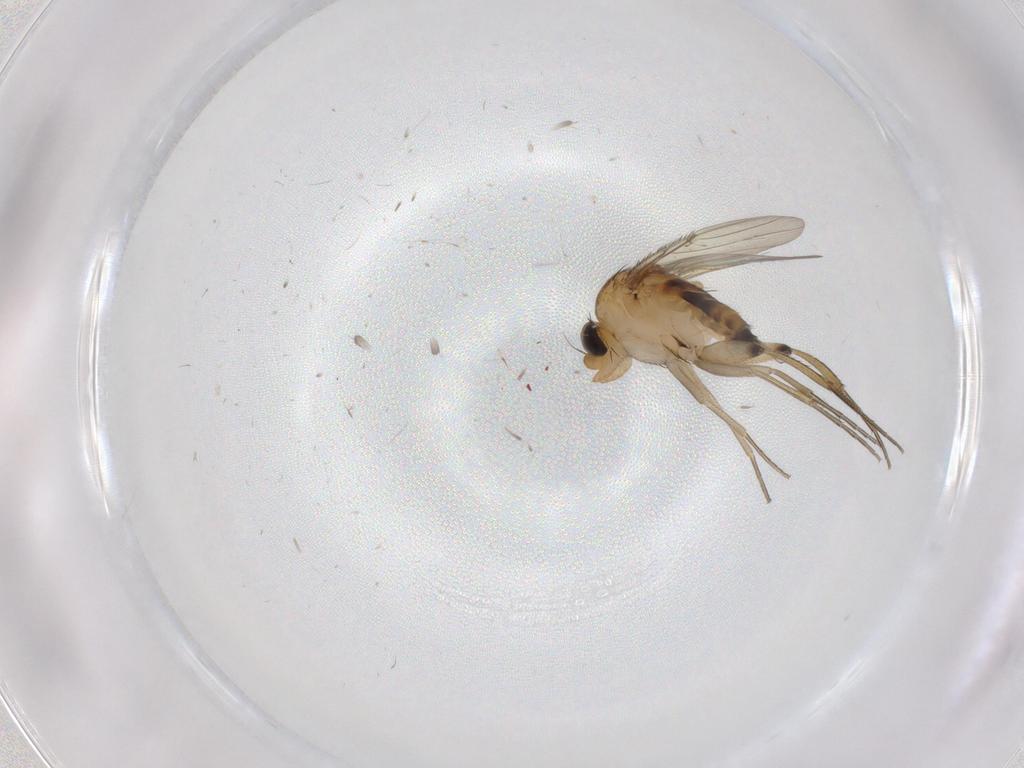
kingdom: Animalia
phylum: Arthropoda
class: Insecta
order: Diptera
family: Phoridae
